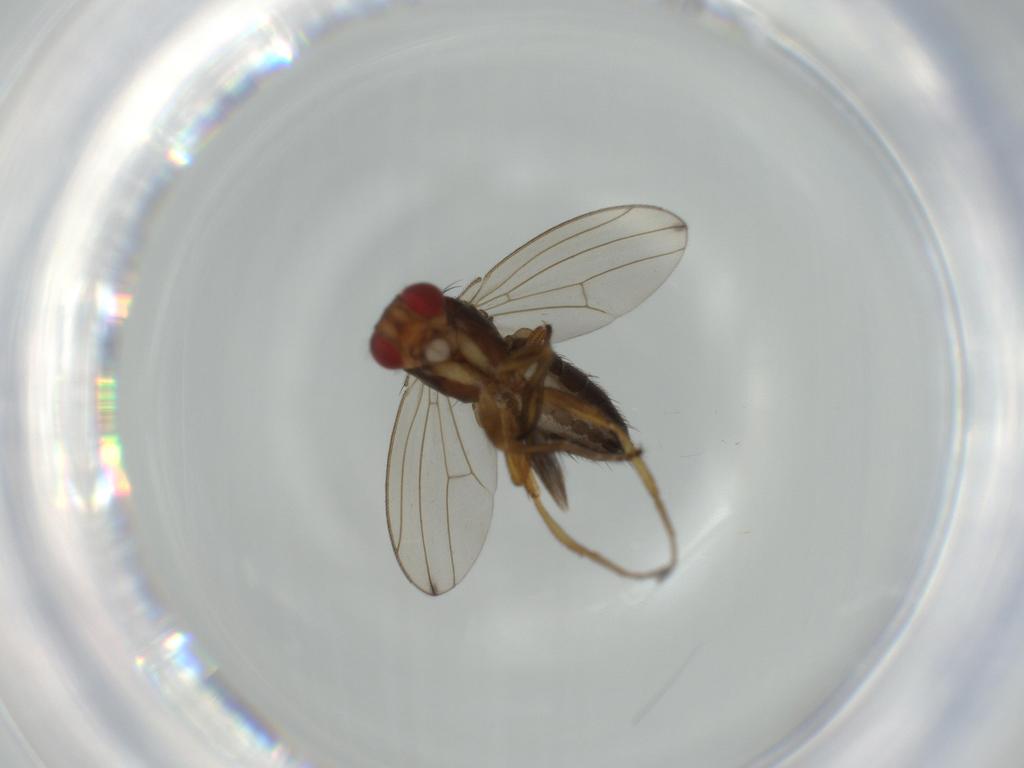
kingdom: Animalia
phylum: Arthropoda
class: Insecta
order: Diptera
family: Drosophilidae
